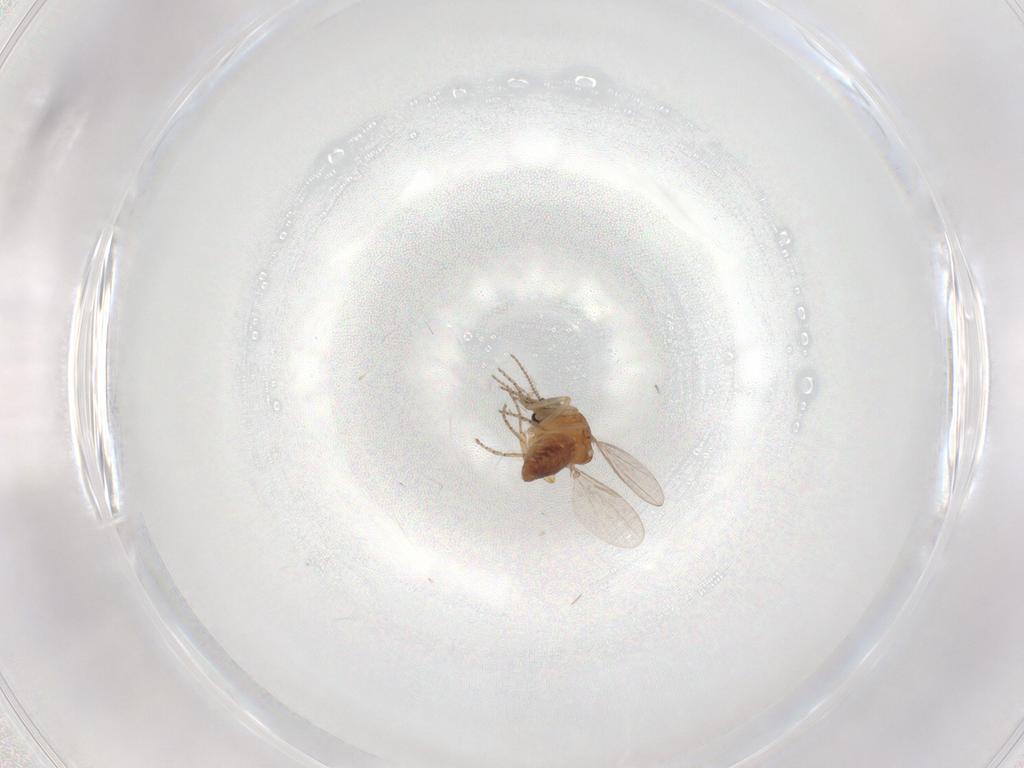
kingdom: Animalia
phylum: Arthropoda
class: Insecta
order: Diptera
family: Ceratopogonidae
